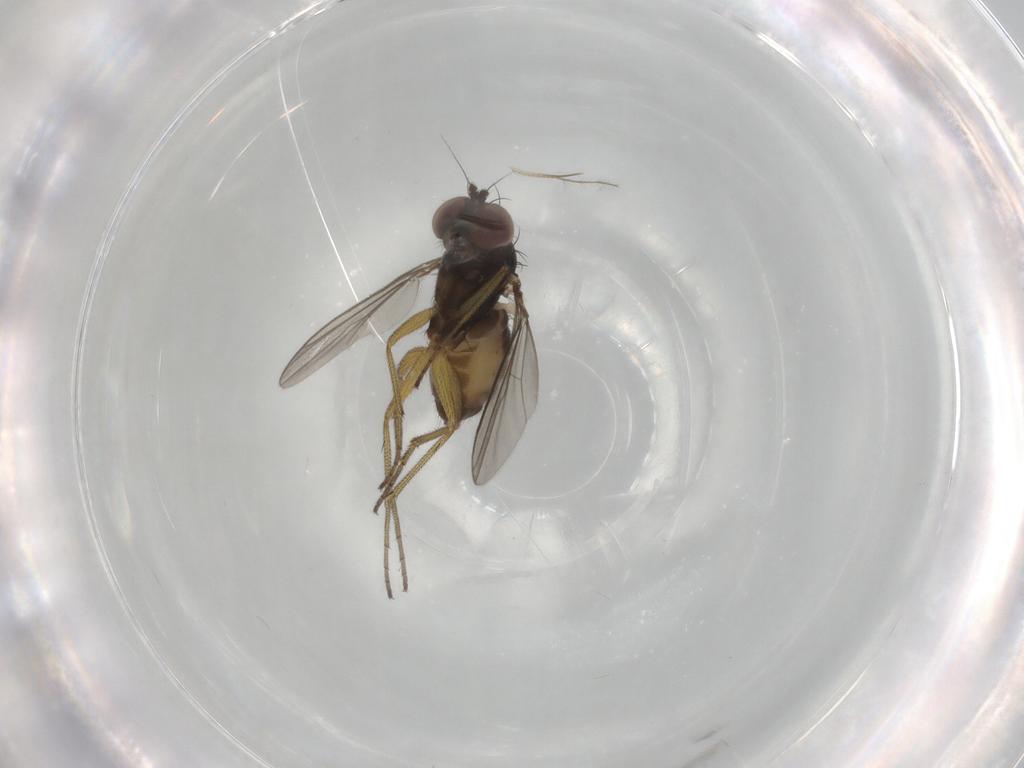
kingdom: Animalia
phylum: Arthropoda
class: Insecta
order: Diptera
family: Dolichopodidae
